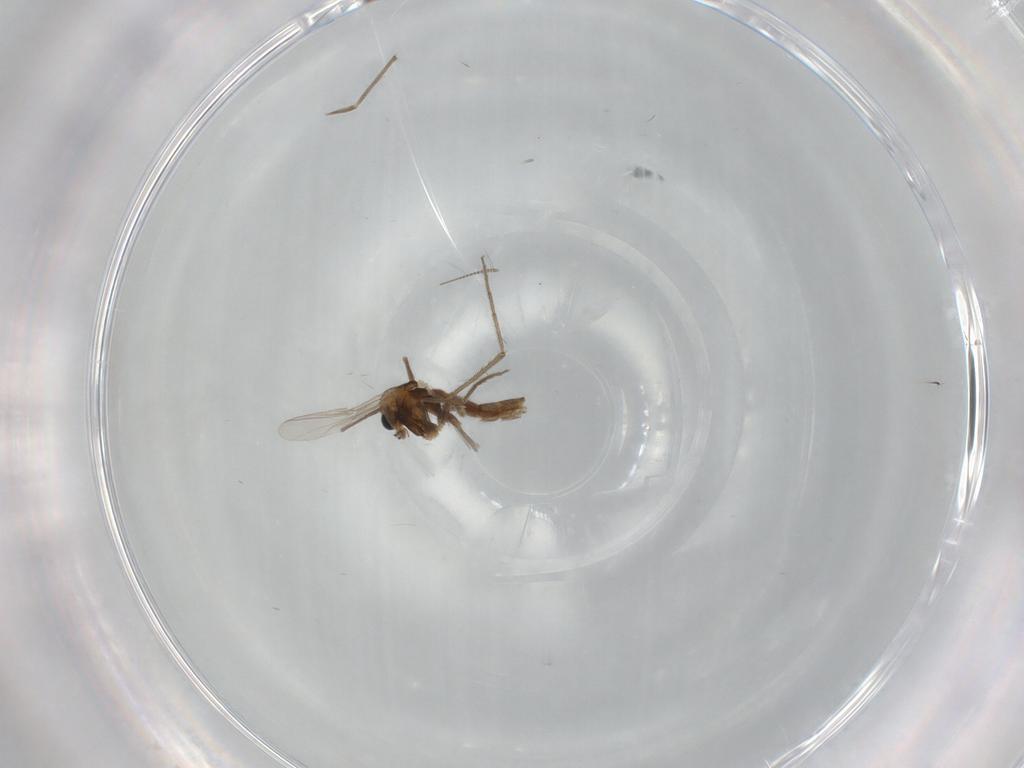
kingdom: Animalia
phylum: Arthropoda
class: Insecta
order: Diptera
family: Chironomidae
